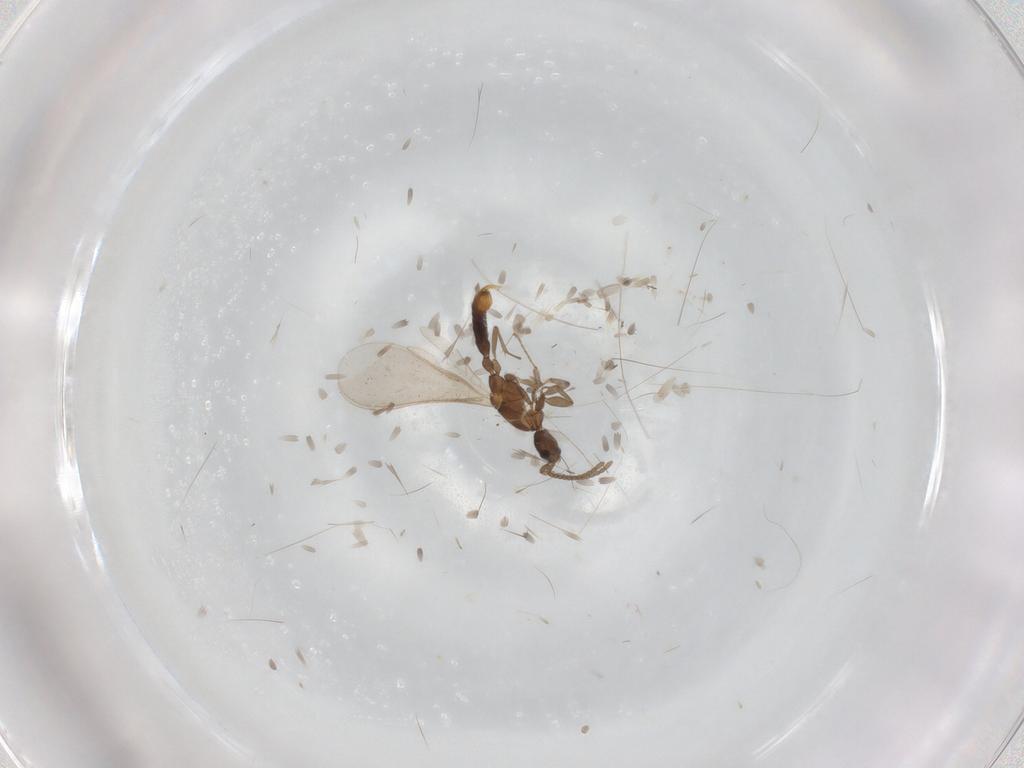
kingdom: Animalia
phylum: Arthropoda
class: Insecta
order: Hymenoptera
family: Formicidae
